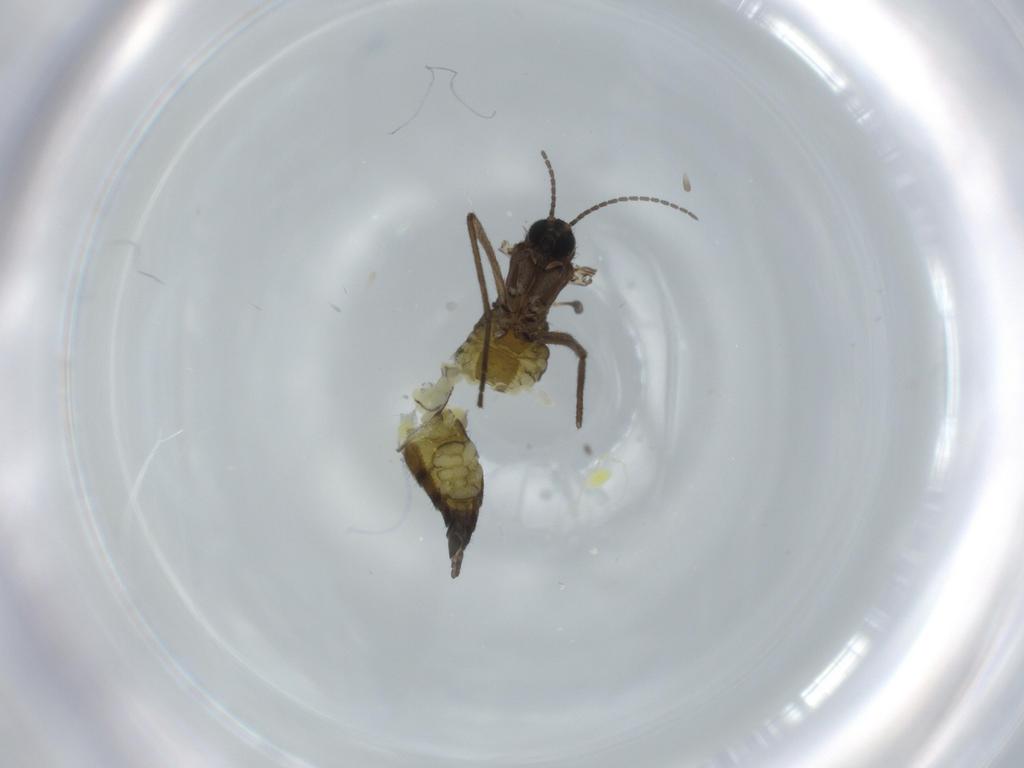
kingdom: Animalia
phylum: Arthropoda
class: Insecta
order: Diptera
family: Sciaridae
